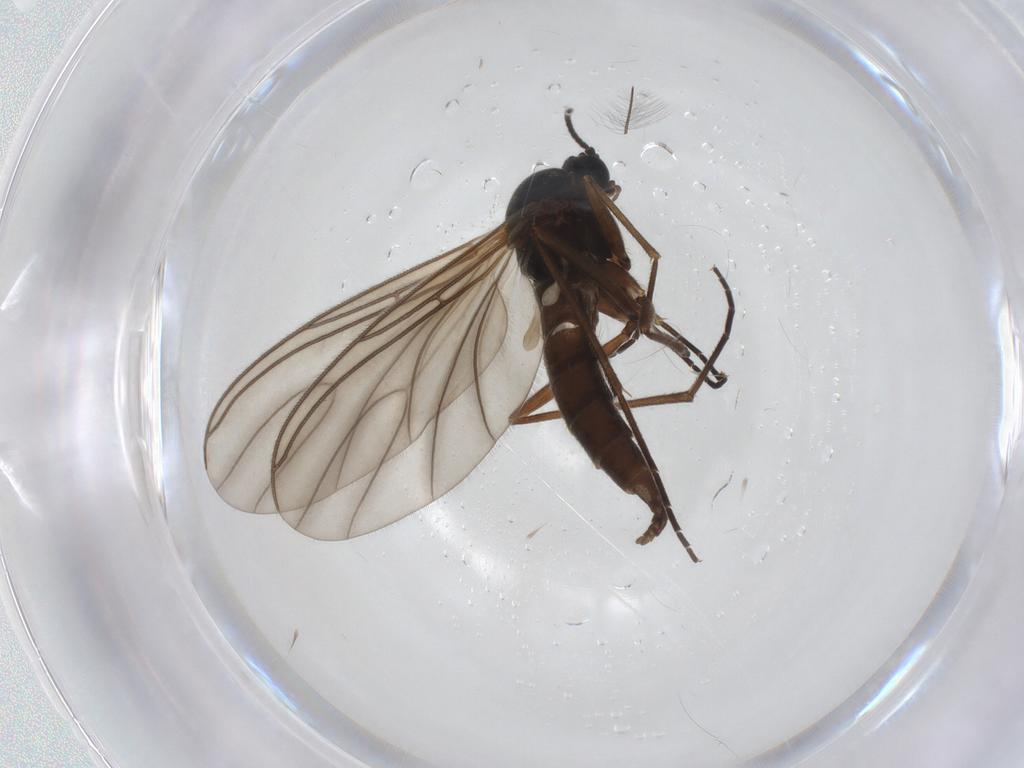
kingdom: Animalia
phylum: Arthropoda
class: Insecta
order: Diptera
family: Sciaridae
